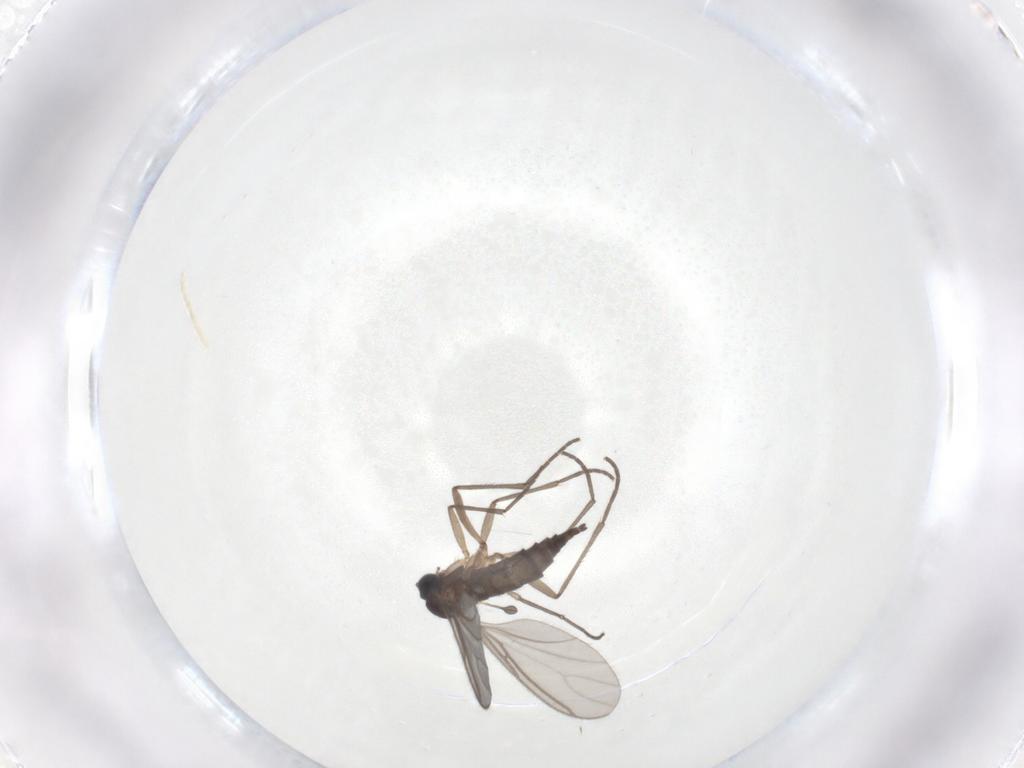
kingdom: Animalia
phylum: Arthropoda
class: Insecta
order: Diptera
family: Sciaridae
